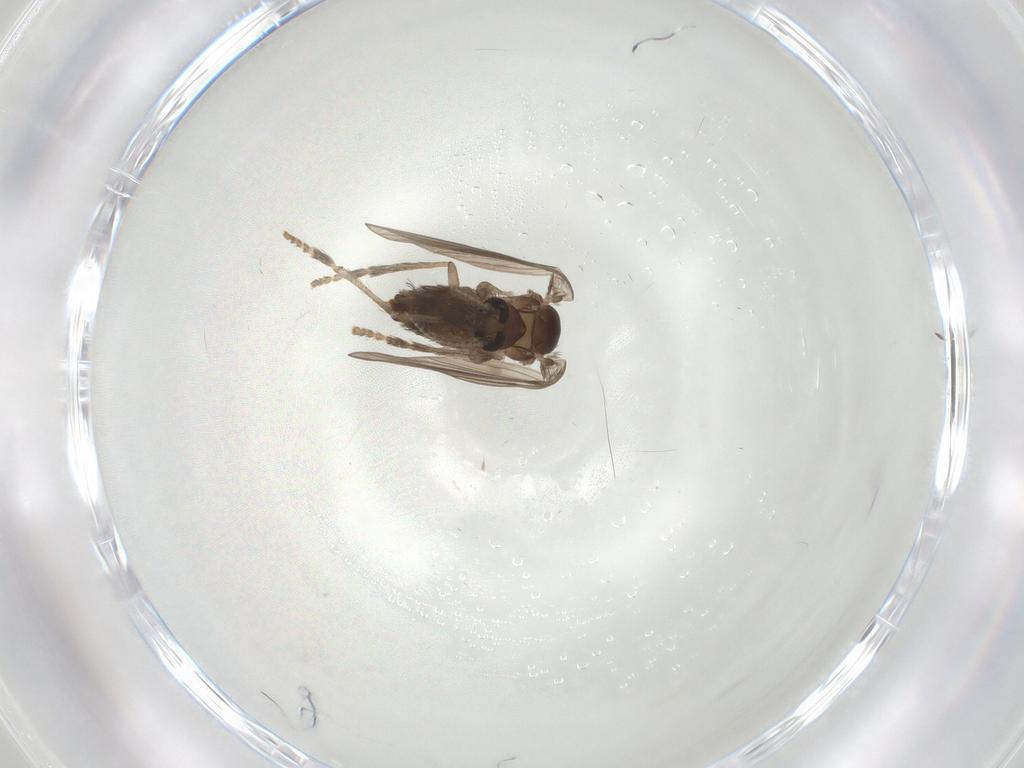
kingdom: Animalia
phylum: Arthropoda
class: Insecta
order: Diptera
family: Psychodidae
